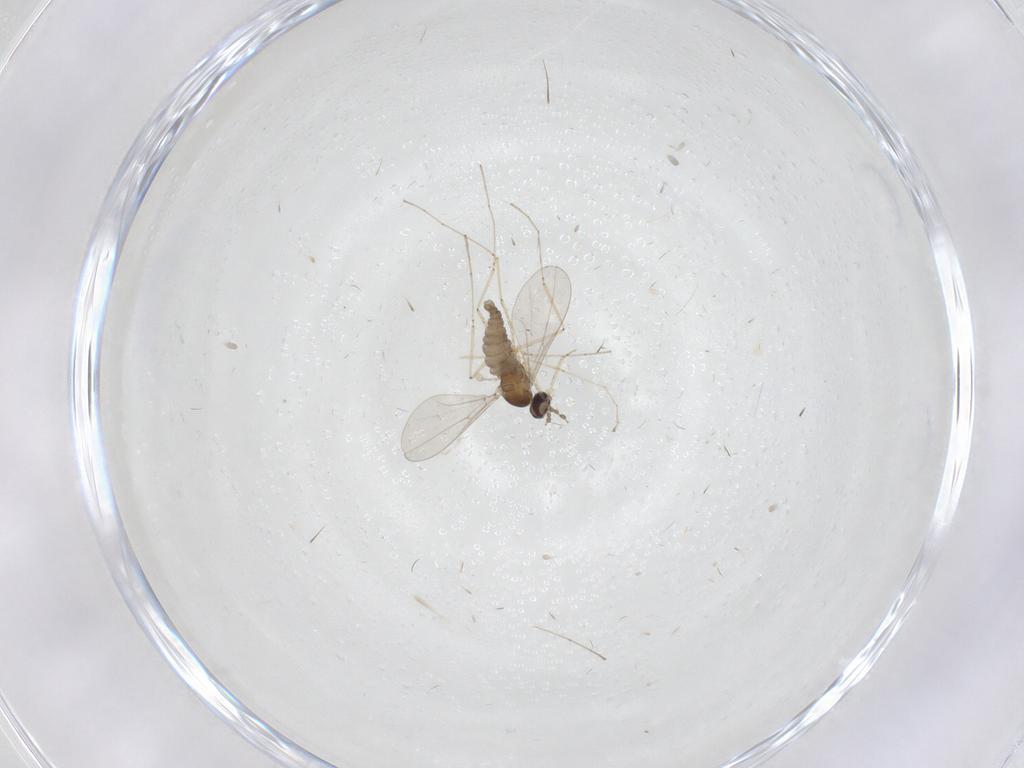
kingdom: Animalia
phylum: Arthropoda
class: Insecta
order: Diptera
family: Cecidomyiidae
